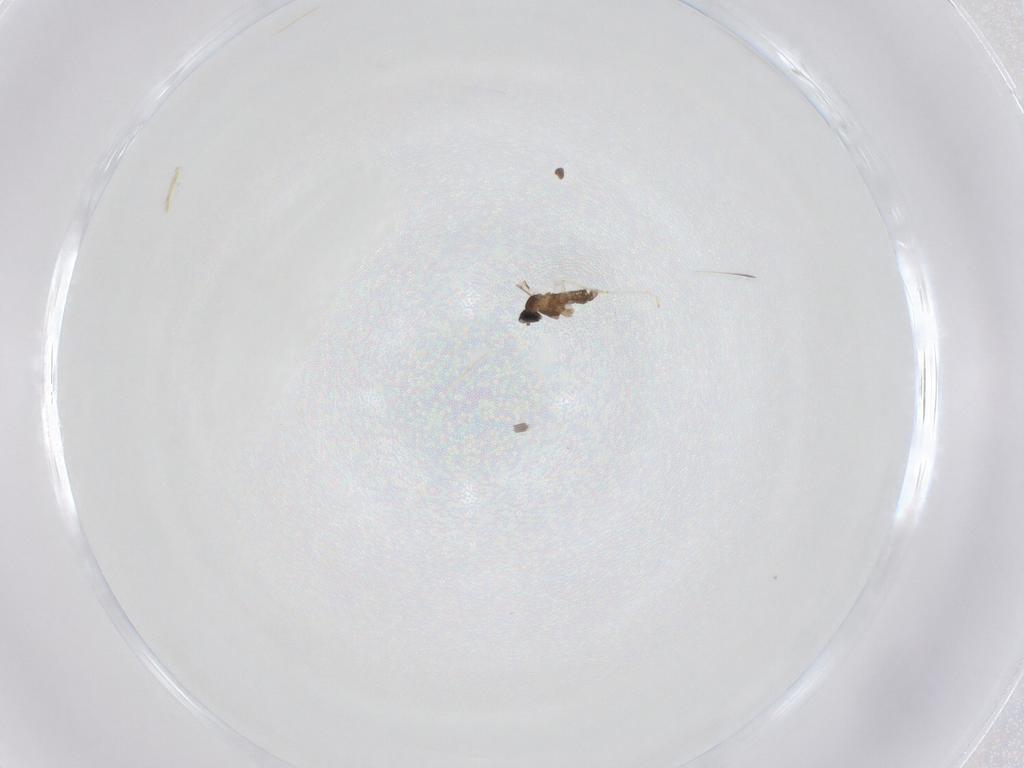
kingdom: Animalia
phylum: Arthropoda
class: Insecta
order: Diptera
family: Cecidomyiidae
